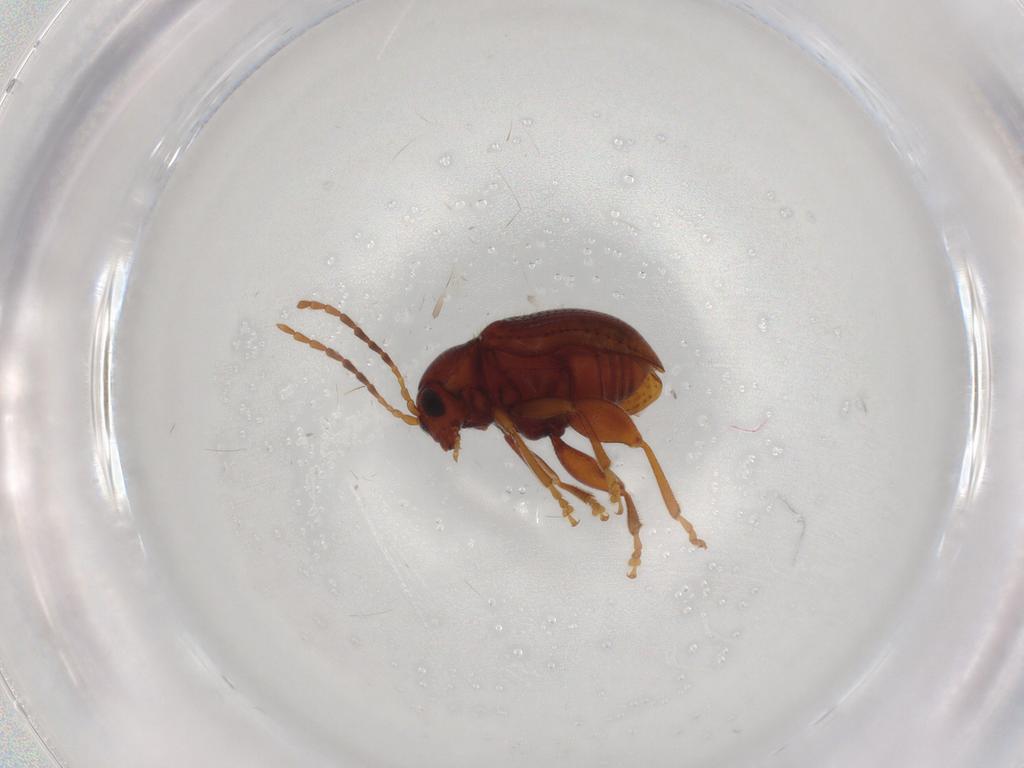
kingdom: Animalia
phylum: Arthropoda
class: Insecta
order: Coleoptera
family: Chrysomelidae
